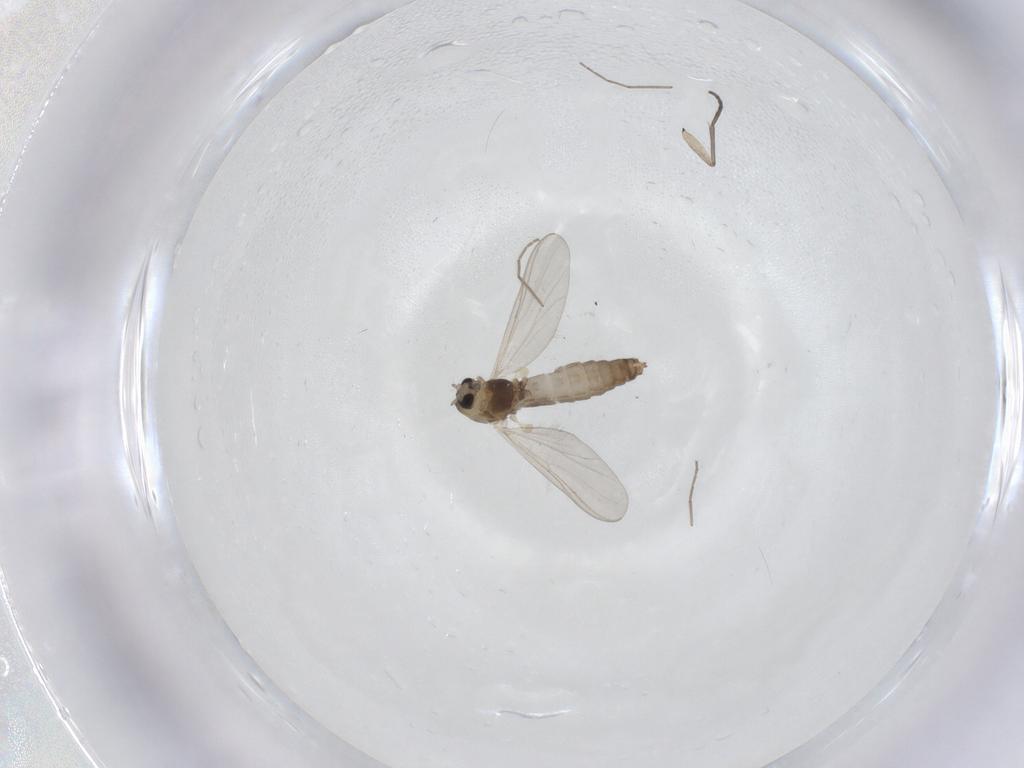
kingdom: Animalia
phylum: Arthropoda
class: Insecta
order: Diptera
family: Chironomidae
